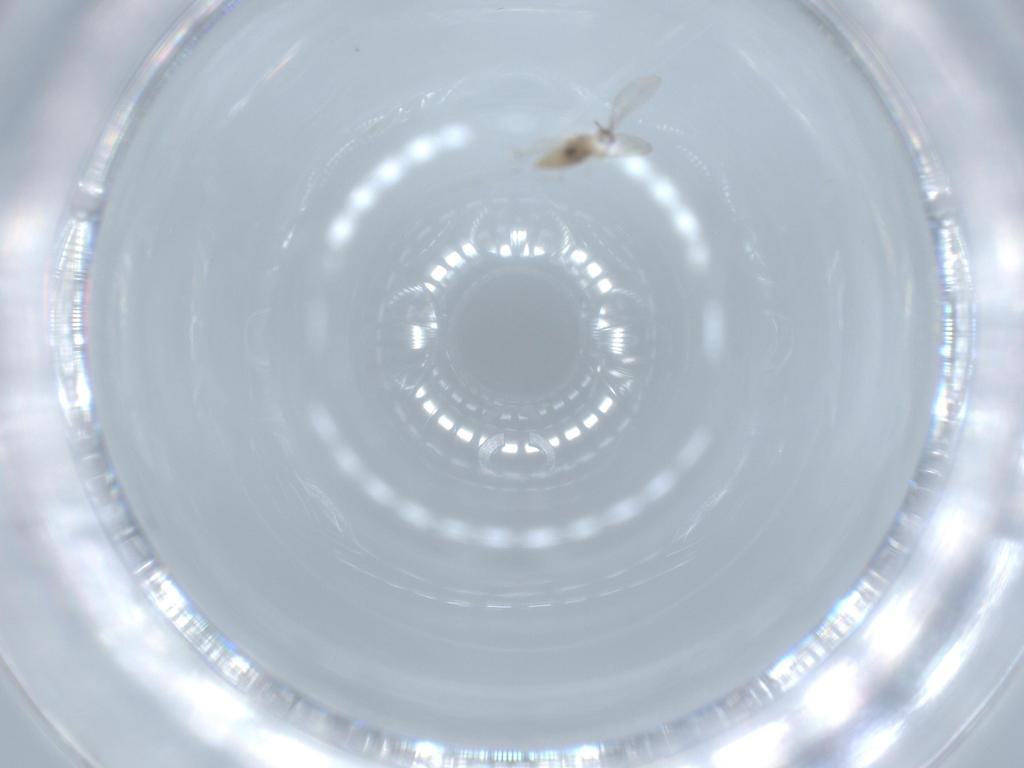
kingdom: Animalia
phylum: Arthropoda
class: Insecta
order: Diptera
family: Cecidomyiidae
